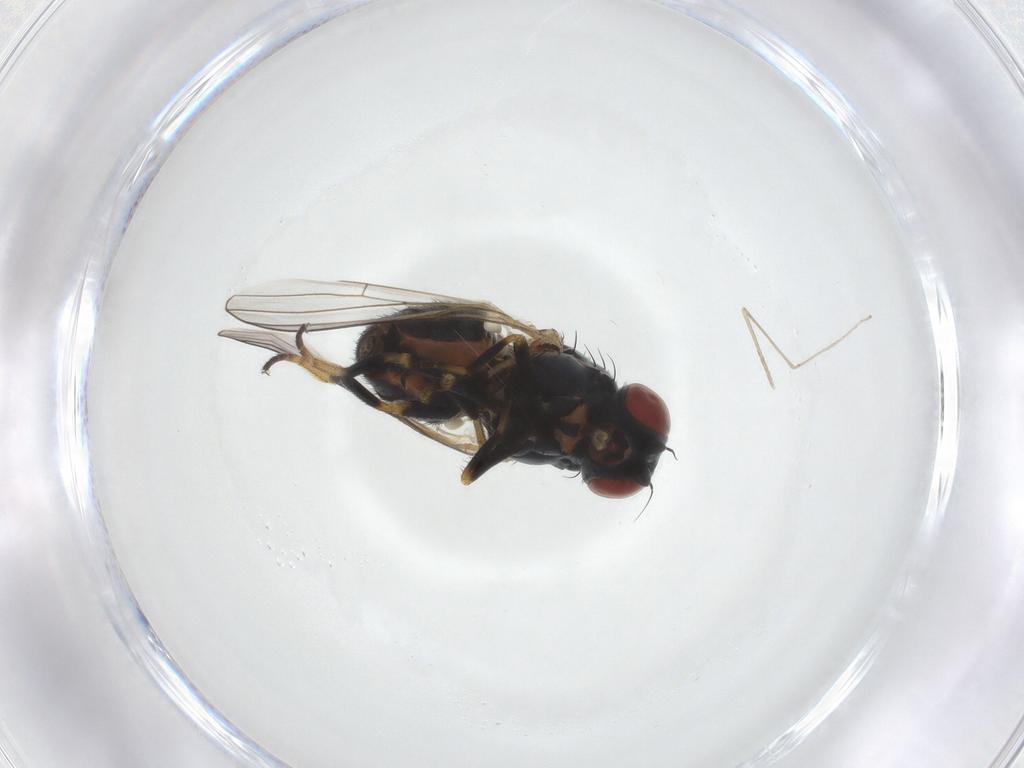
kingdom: Animalia
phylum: Arthropoda
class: Insecta
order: Diptera
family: Chamaemyiidae
